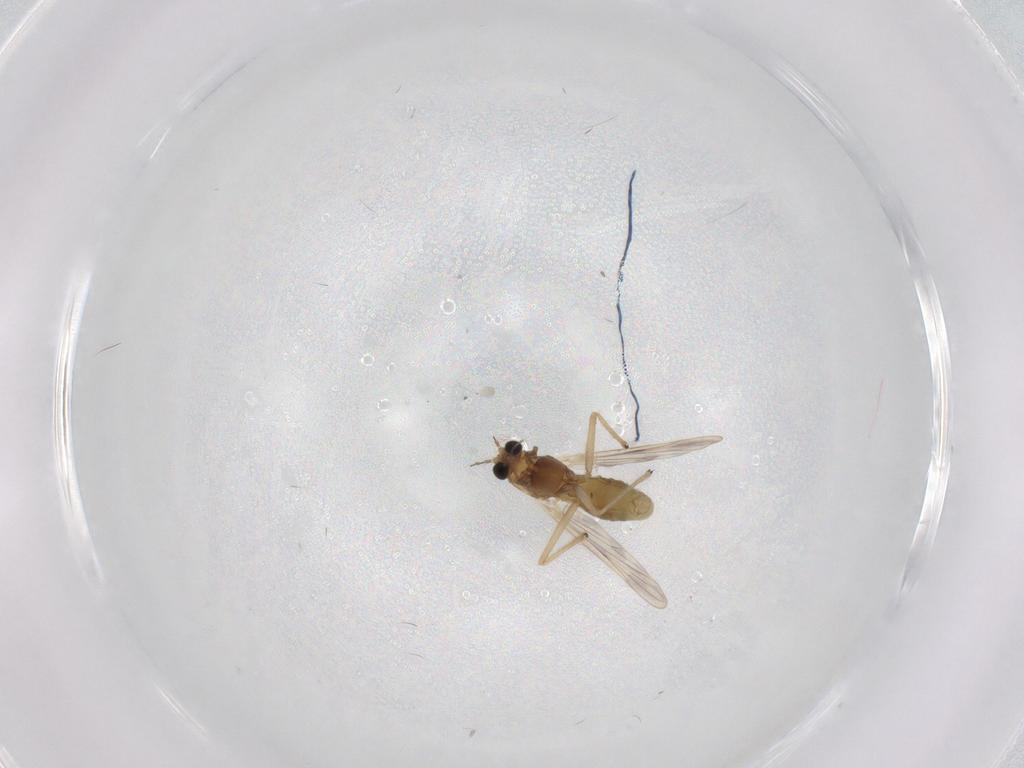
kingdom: Animalia
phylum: Arthropoda
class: Insecta
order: Diptera
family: Chironomidae
